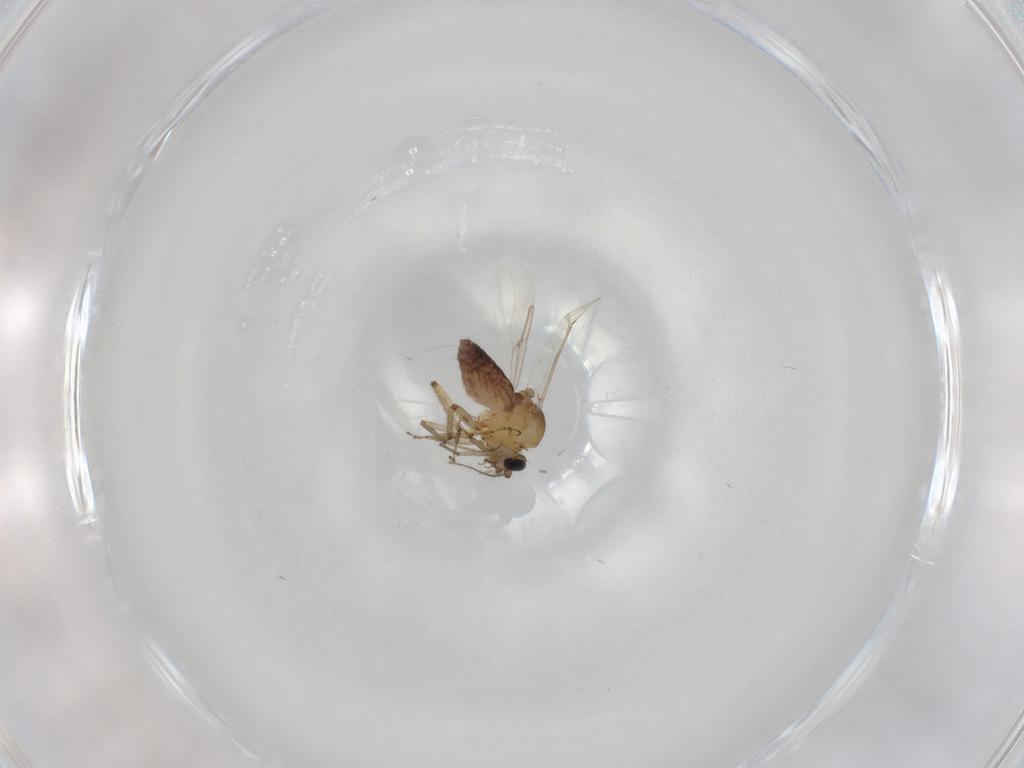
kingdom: Animalia
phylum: Arthropoda
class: Insecta
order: Diptera
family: Ceratopogonidae
